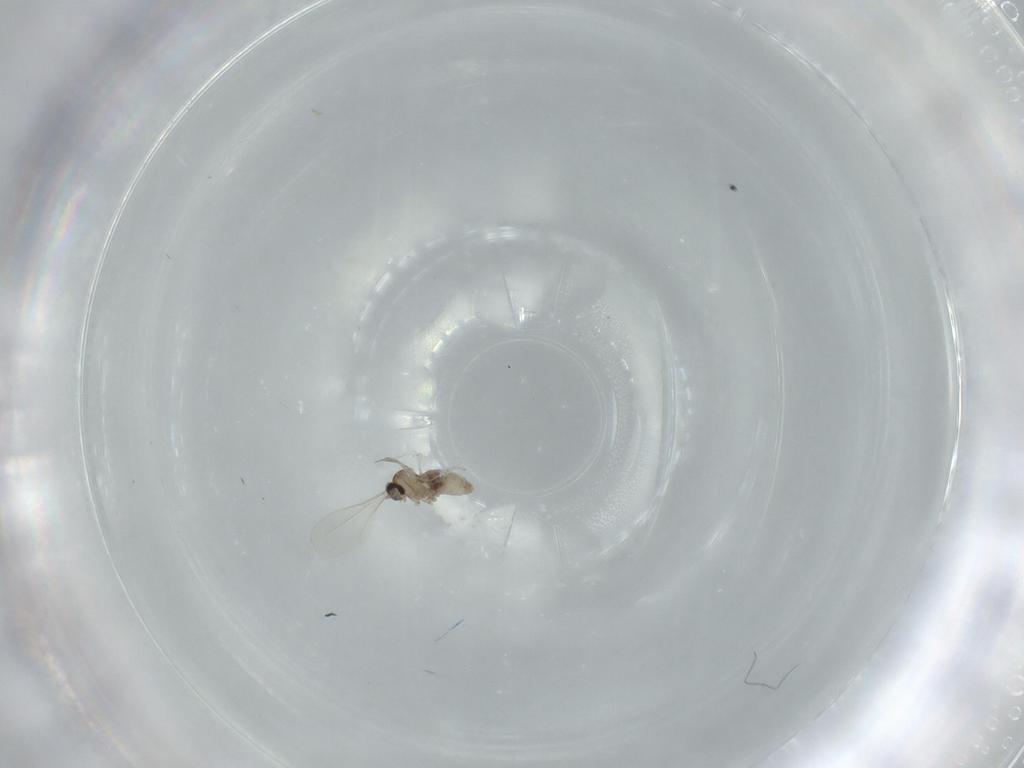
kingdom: Animalia
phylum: Arthropoda
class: Insecta
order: Diptera
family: Cecidomyiidae
